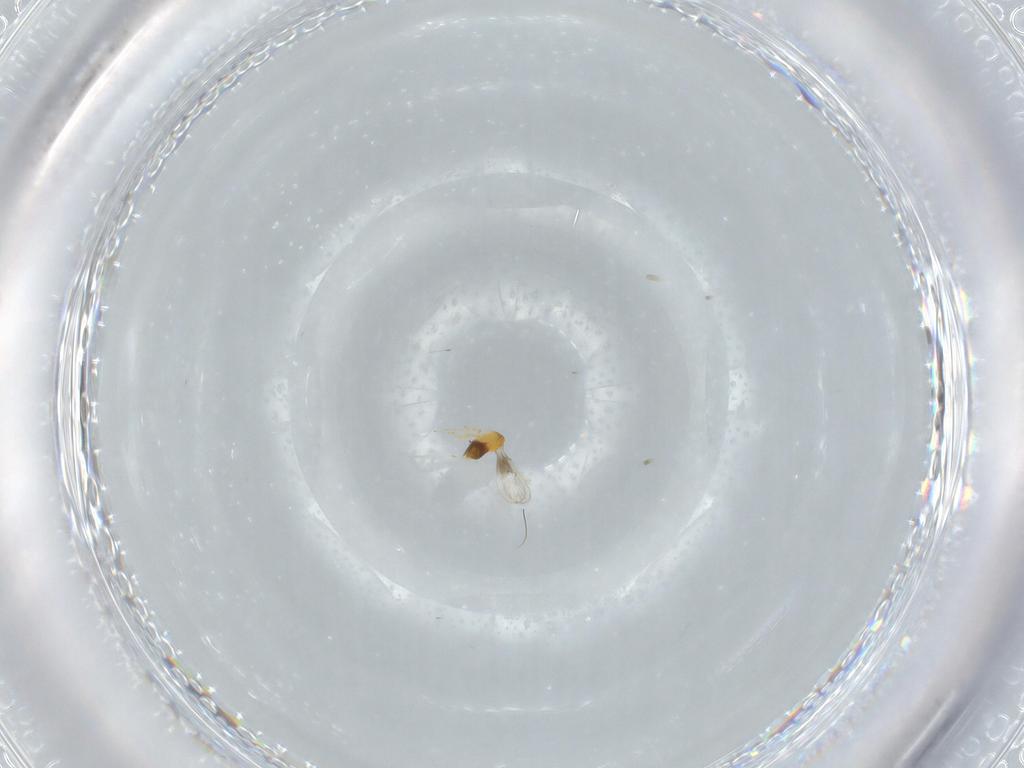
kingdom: Animalia
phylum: Arthropoda
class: Insecta
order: Hymenoptera
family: Trichogrammatidae
